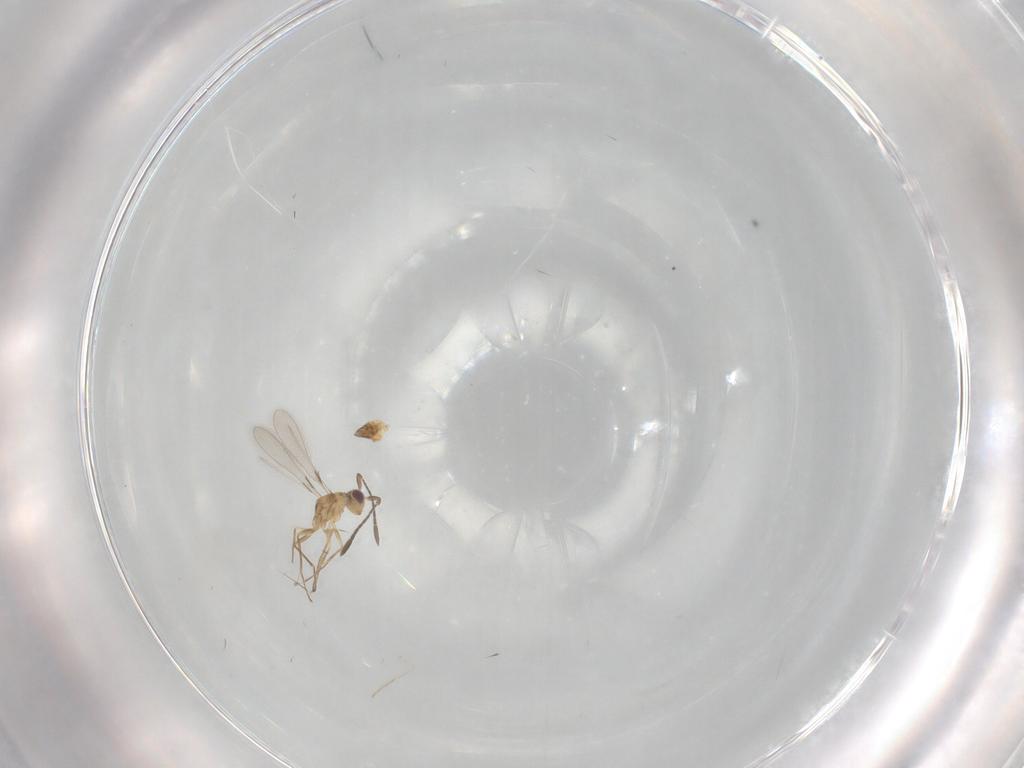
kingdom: Animalia
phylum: Arthropoda
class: Insecta
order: Hymenoptera
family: Mymaridae
